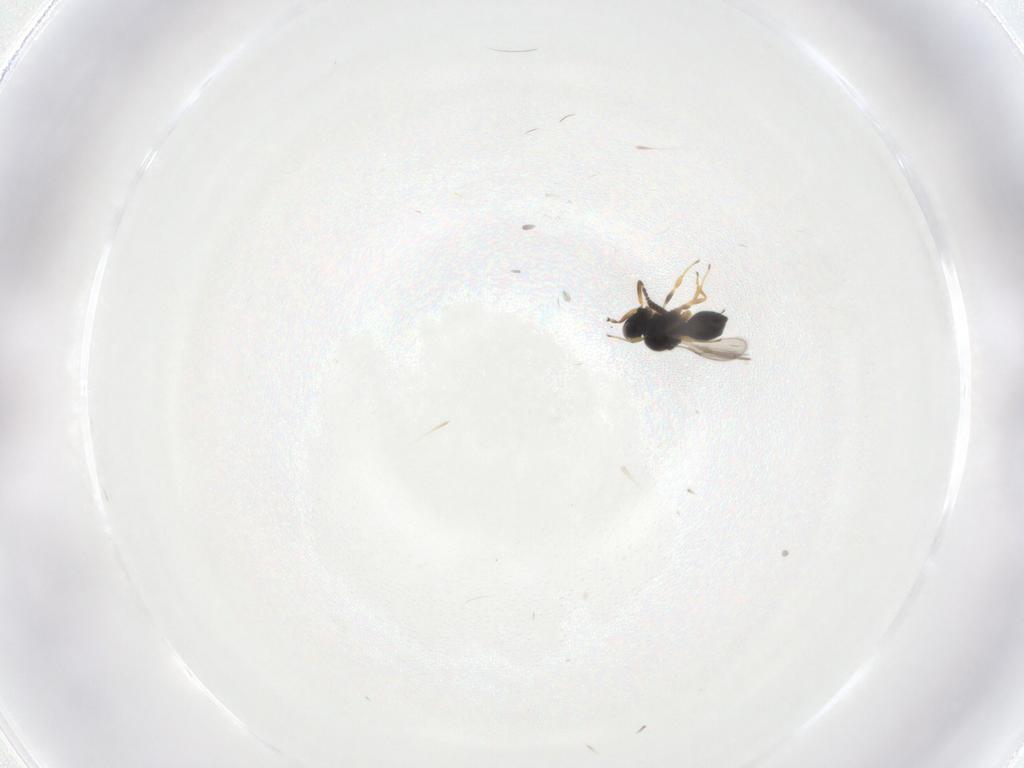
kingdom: Animalia
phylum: Arthropoda
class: Insecta
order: Hymenoptera
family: Scelionidae
